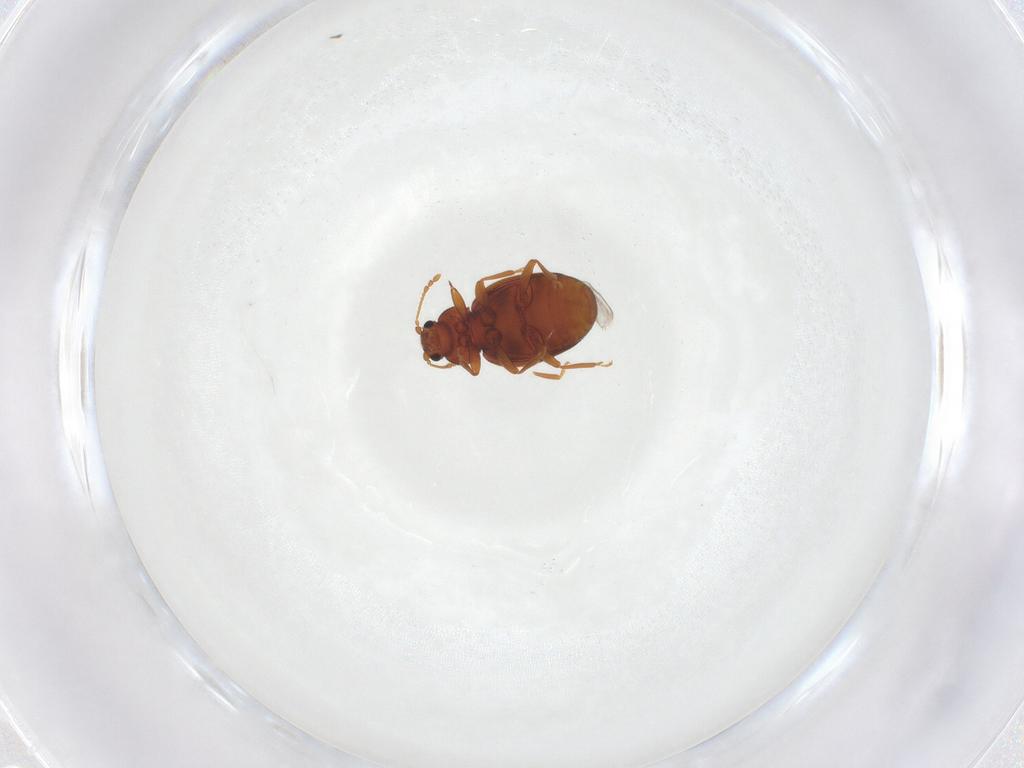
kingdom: Animalia
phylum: Arthropoda
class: Insecta
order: Coleoptera
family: Latridiidae
